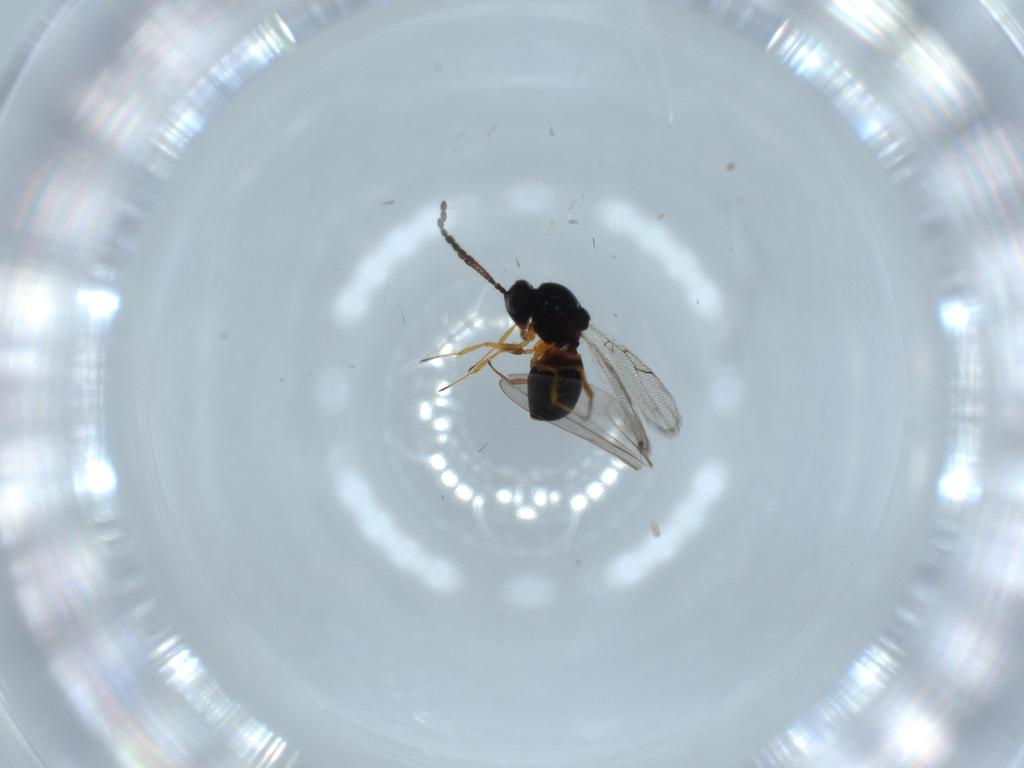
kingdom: Animalia
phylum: Arthropoda
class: Insecta
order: Hymenoptera
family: Figitidae
